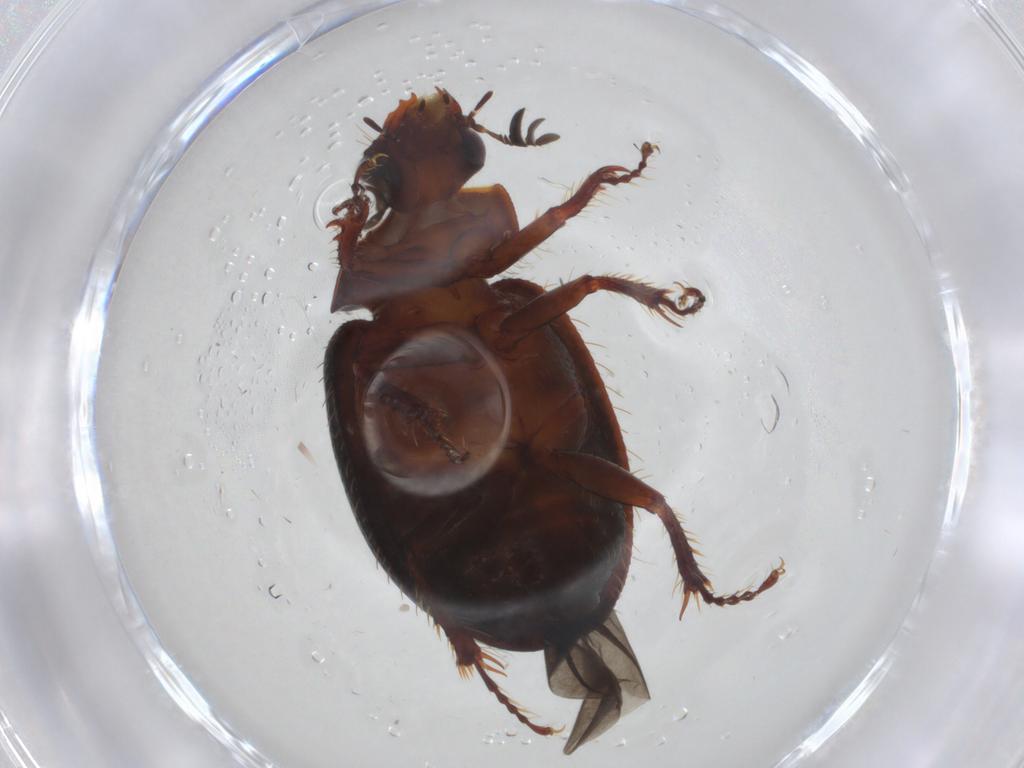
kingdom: Animalia
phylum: Arthropoda
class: Insecta
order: Coleoptera
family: Hybosoridae
